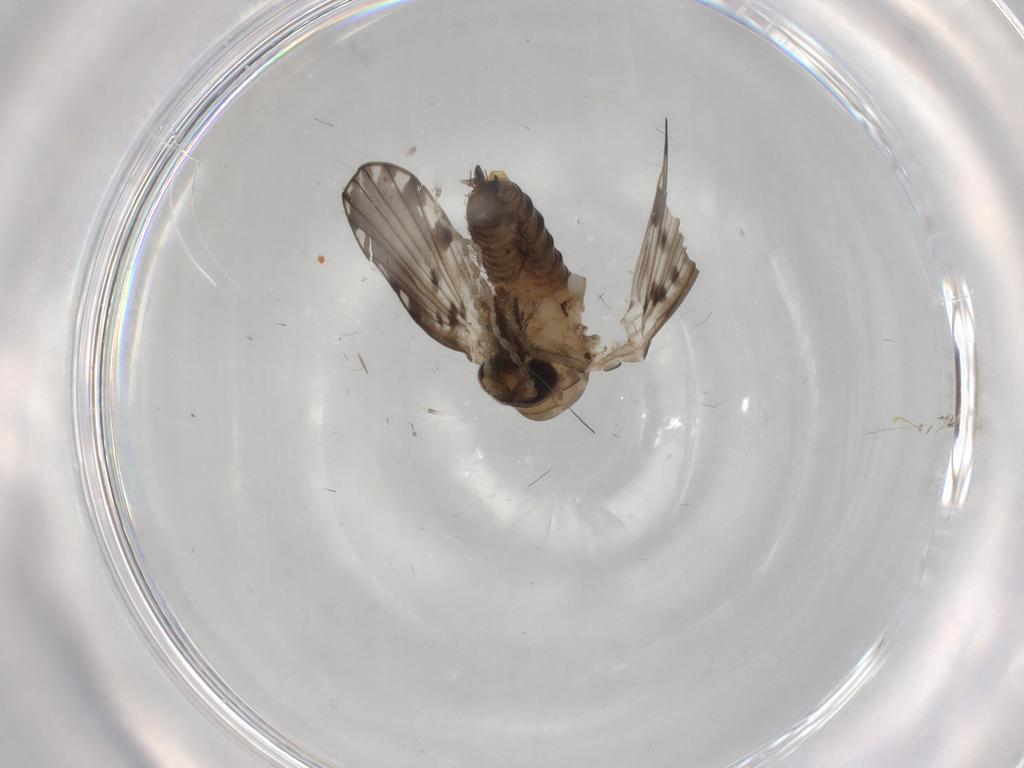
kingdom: Animalia
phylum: Arthropoda
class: Insecta
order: Diptera
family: Psychodidae
